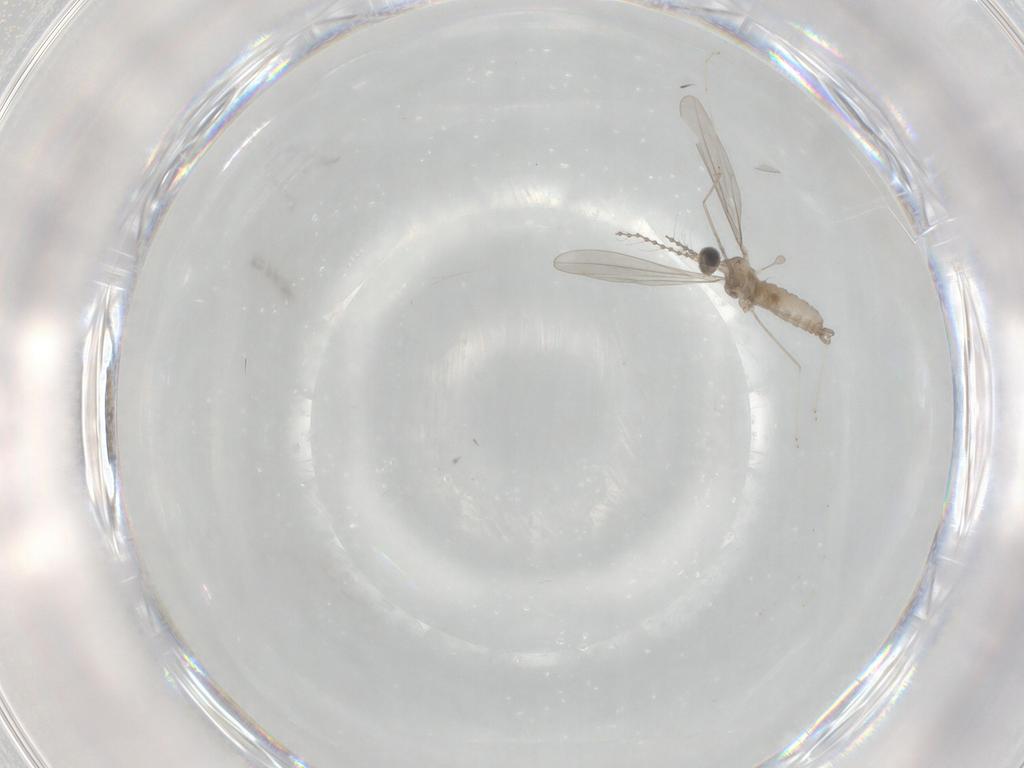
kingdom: Animalia
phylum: Arthropoda
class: Insecta
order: Diptera
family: Cecidomyiidae
